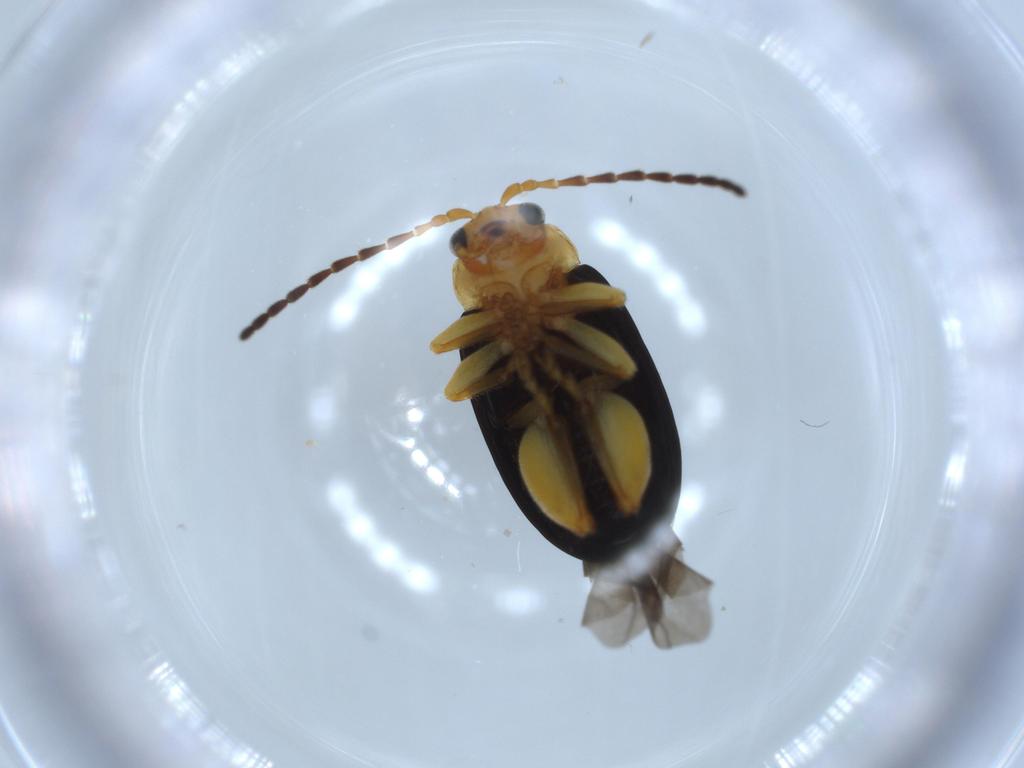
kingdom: Animalia
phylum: Arthropoda
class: Insecta
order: Coleoptera
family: Chrysomelidae
